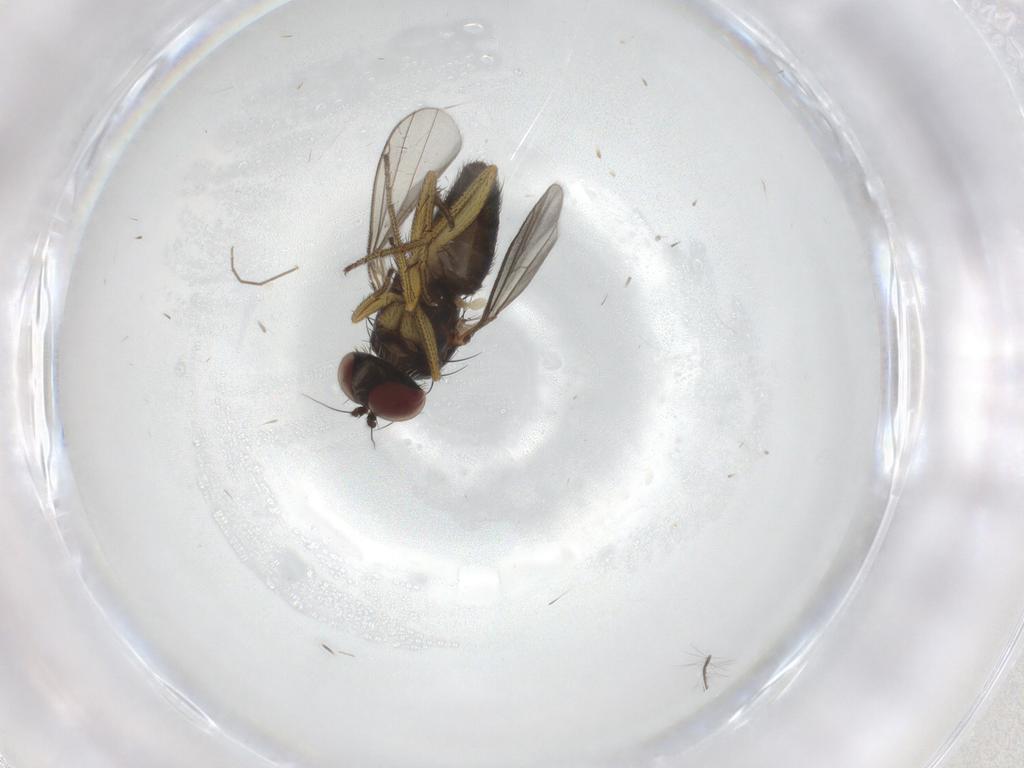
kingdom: Animalia
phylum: Arthropoda
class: Insecta
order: Diptera
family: Dolichopodidae
